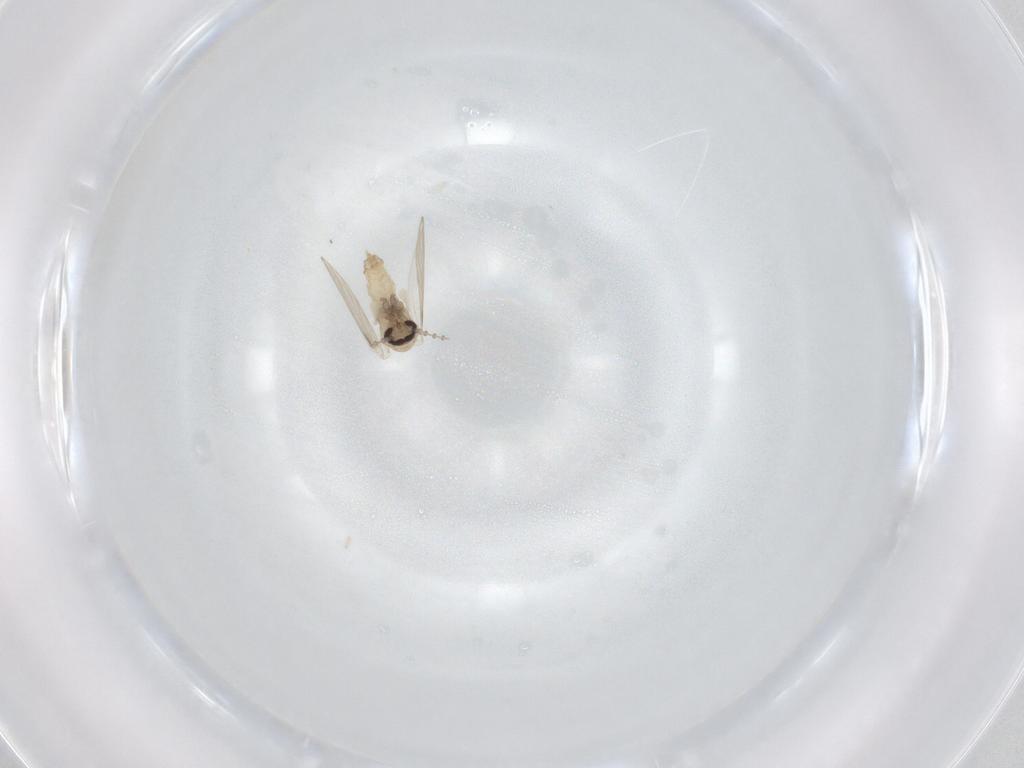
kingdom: Animalia
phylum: Arthropoda
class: Insecta
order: Diptera
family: Psychodidae
